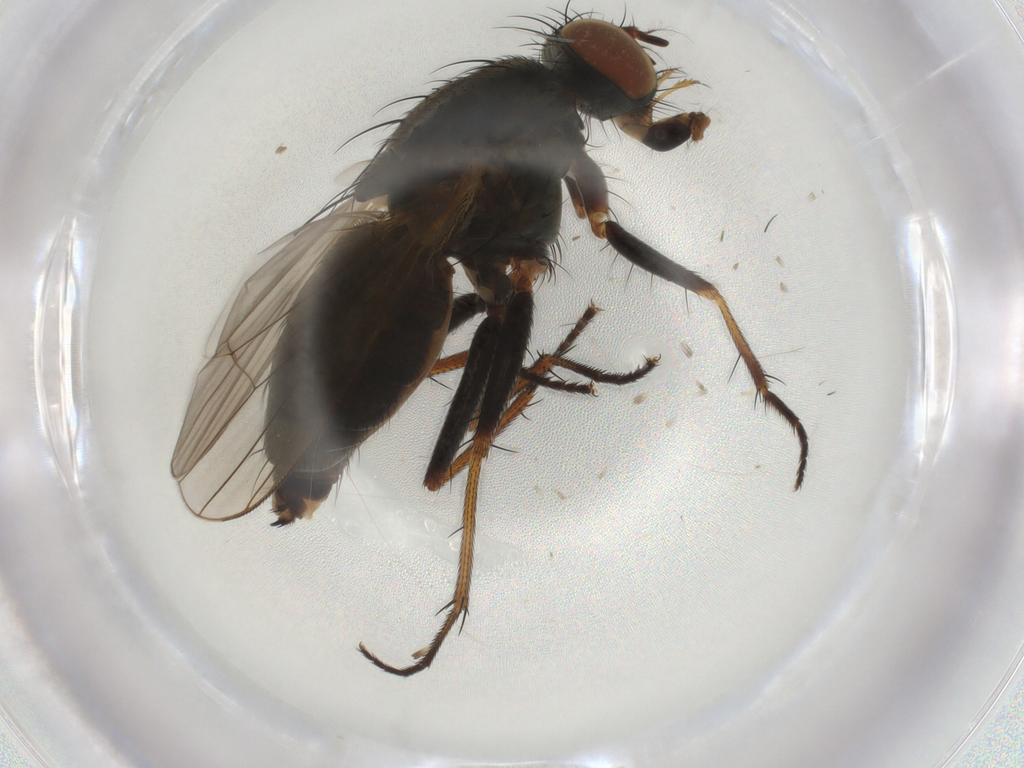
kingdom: Animalia
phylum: Arthropoda
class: Insecta
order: Diptera
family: Muscidae
